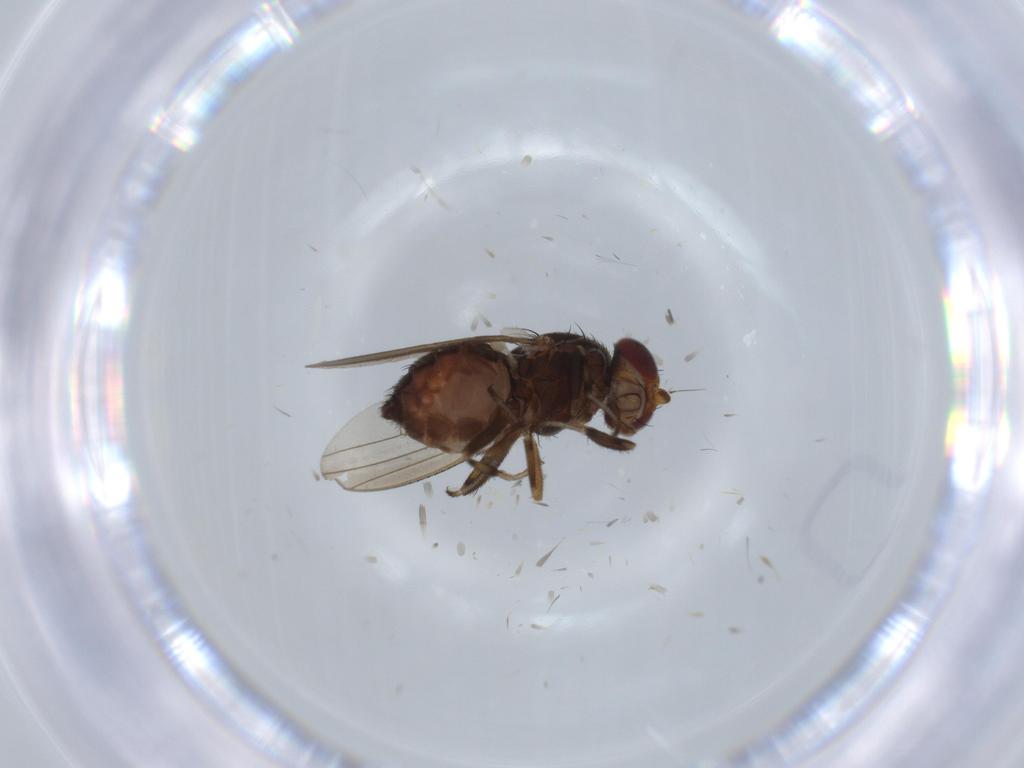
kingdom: Animalia
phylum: Arthropoda
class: Insecta
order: Diptera
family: Heleomyzidae
